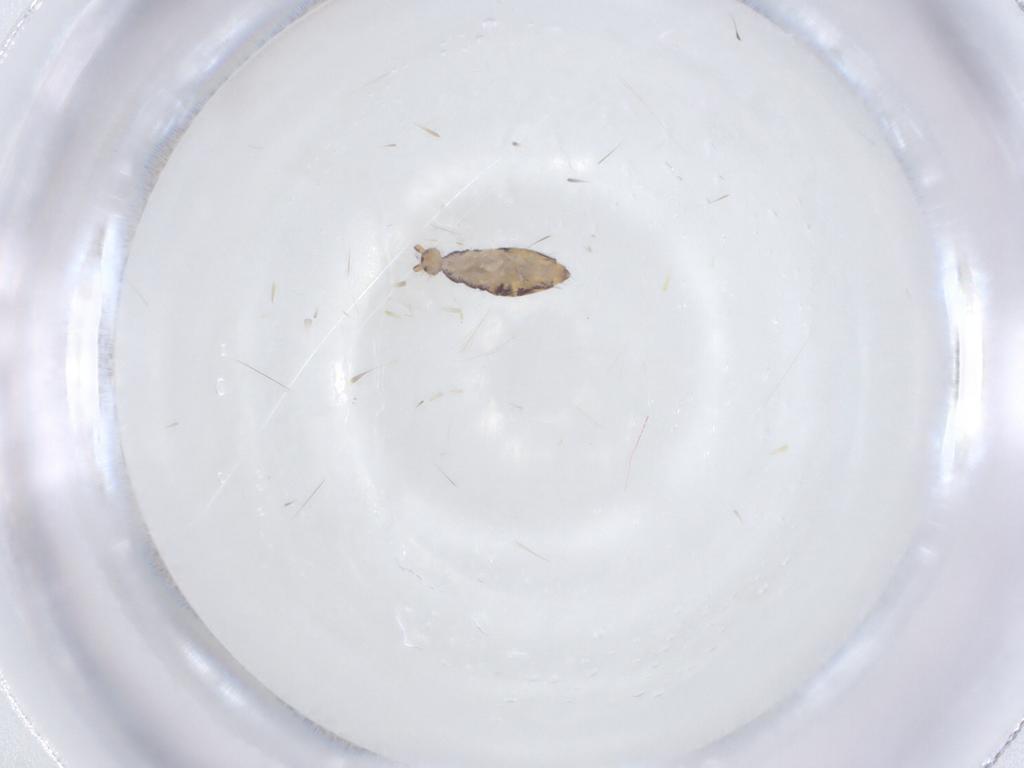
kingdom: Animalia
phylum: Arthropoda
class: Collembola
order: Entomobryomorpha
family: Entomobryidae
